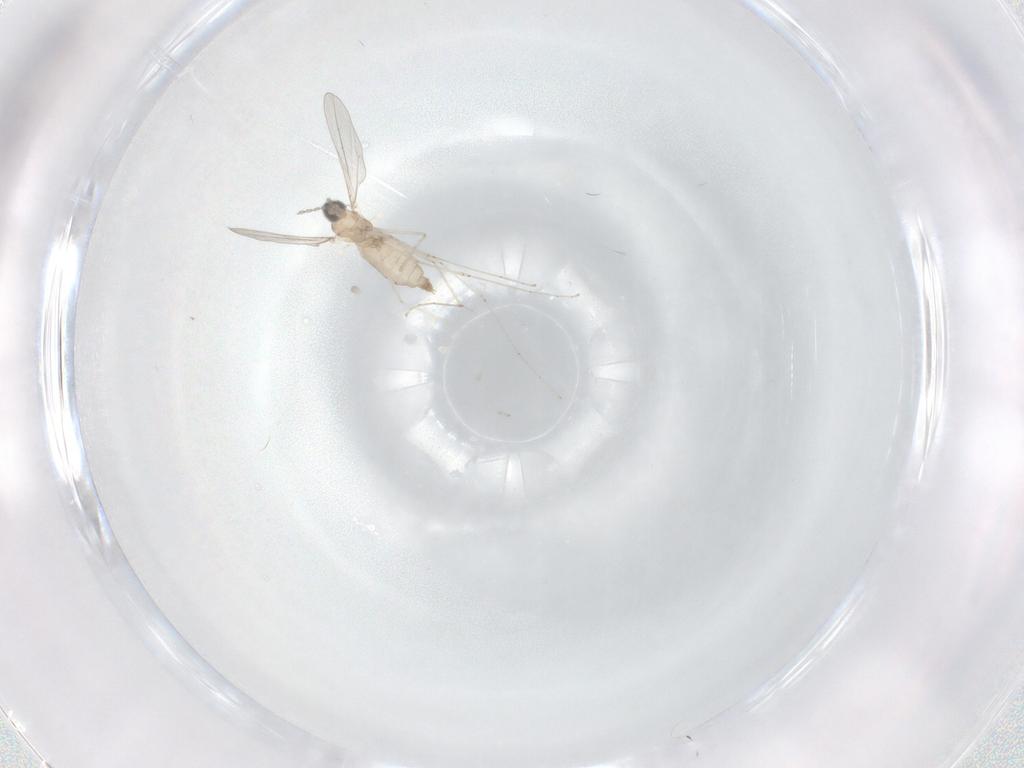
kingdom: Animalia
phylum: Arthropoda
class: Insecta
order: Diptera
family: Cecidomyiidae
